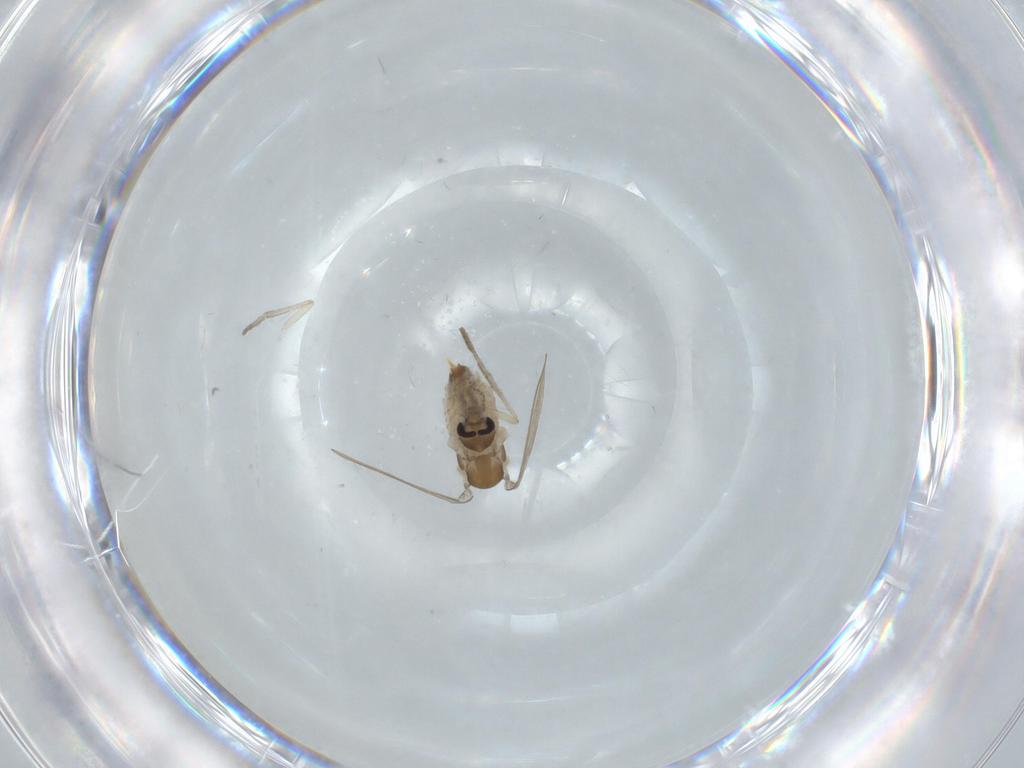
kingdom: Animalia
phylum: Arthropoda
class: Insecta
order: Diptera
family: Psychodidae
